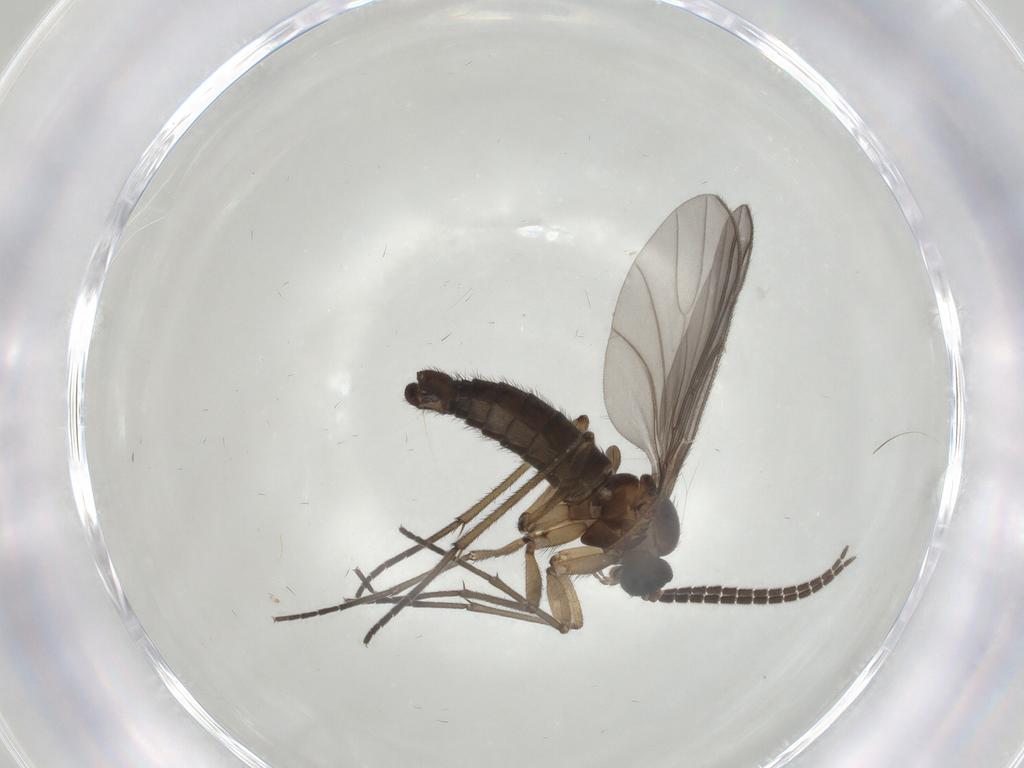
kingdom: Animalia
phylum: Arthropoda
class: Insecta
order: Diptera
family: Sciaridae
